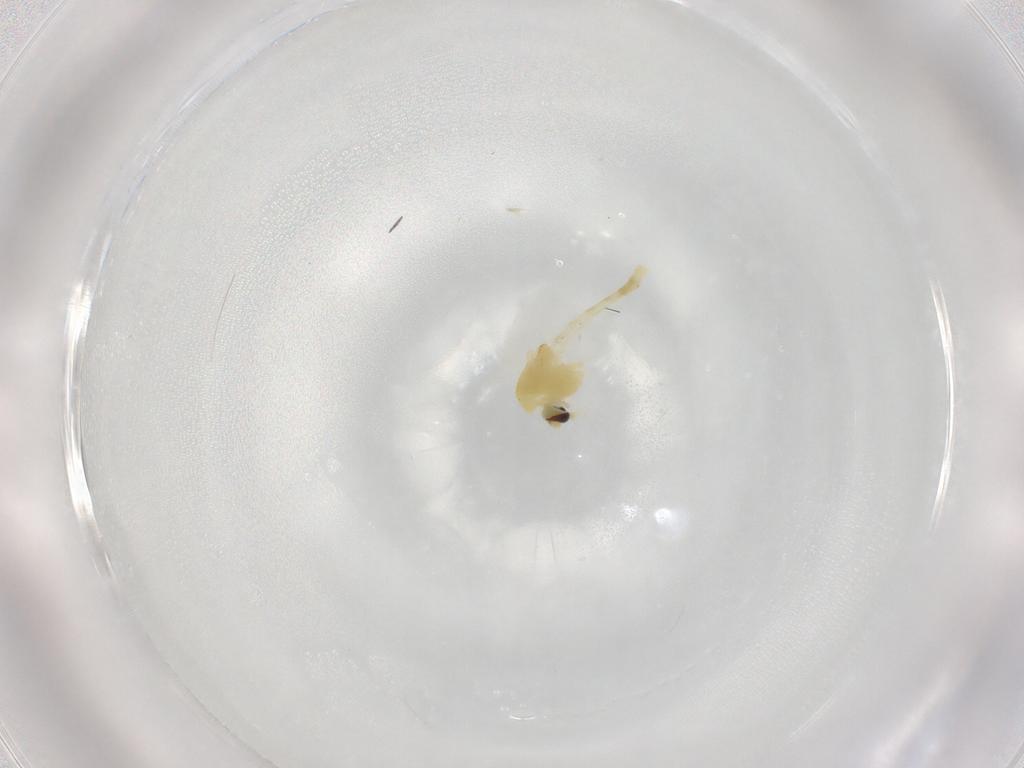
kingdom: Animalia
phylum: Arthropoda
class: Insecta
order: Diptera
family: Chironomidae
